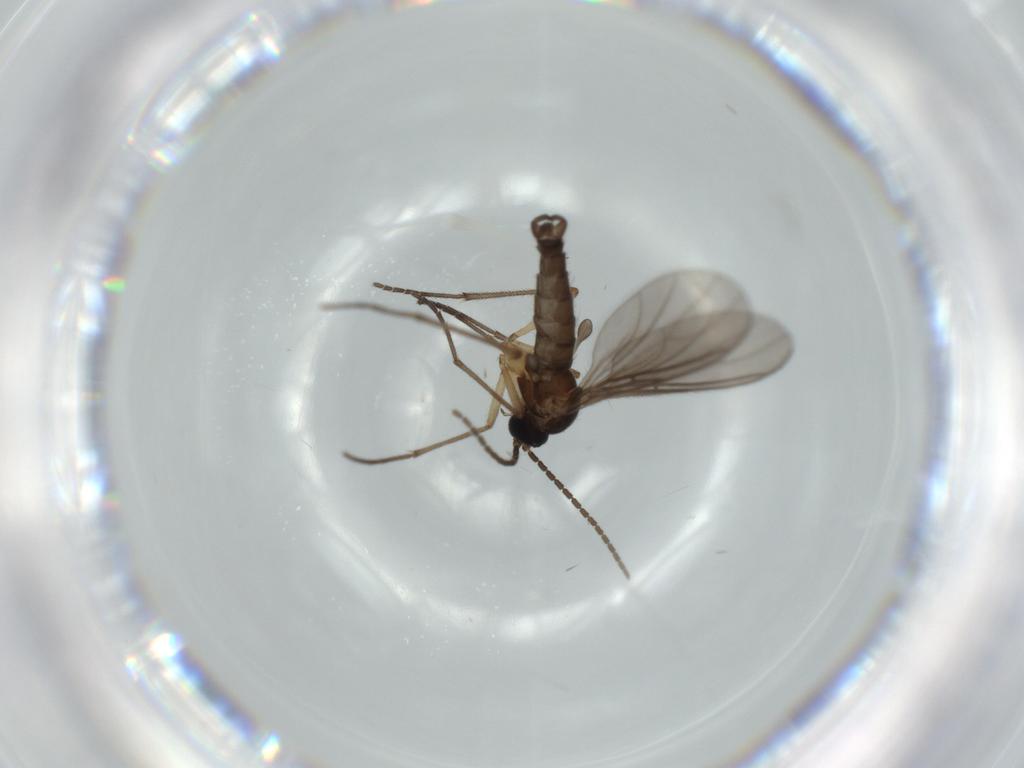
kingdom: Animalia
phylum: Arthropoda
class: Insecta
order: Diptera
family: Sciaridae
